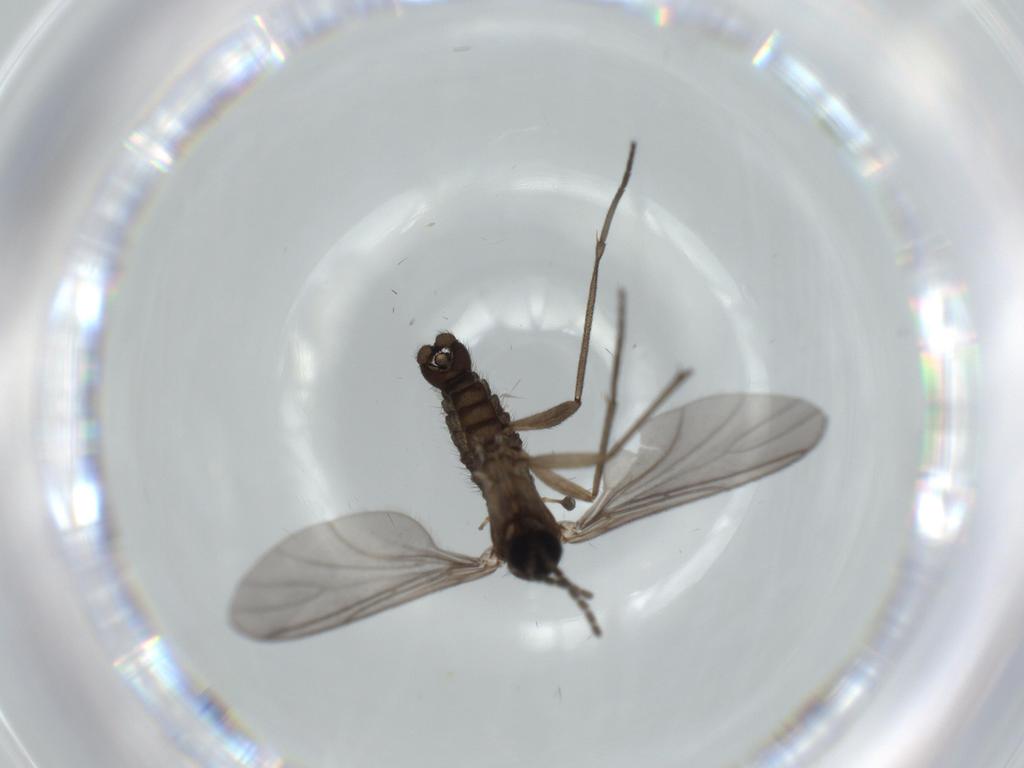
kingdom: Animalia
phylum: Arthropoda
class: Insecta
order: Diptera
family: Sciaridae
